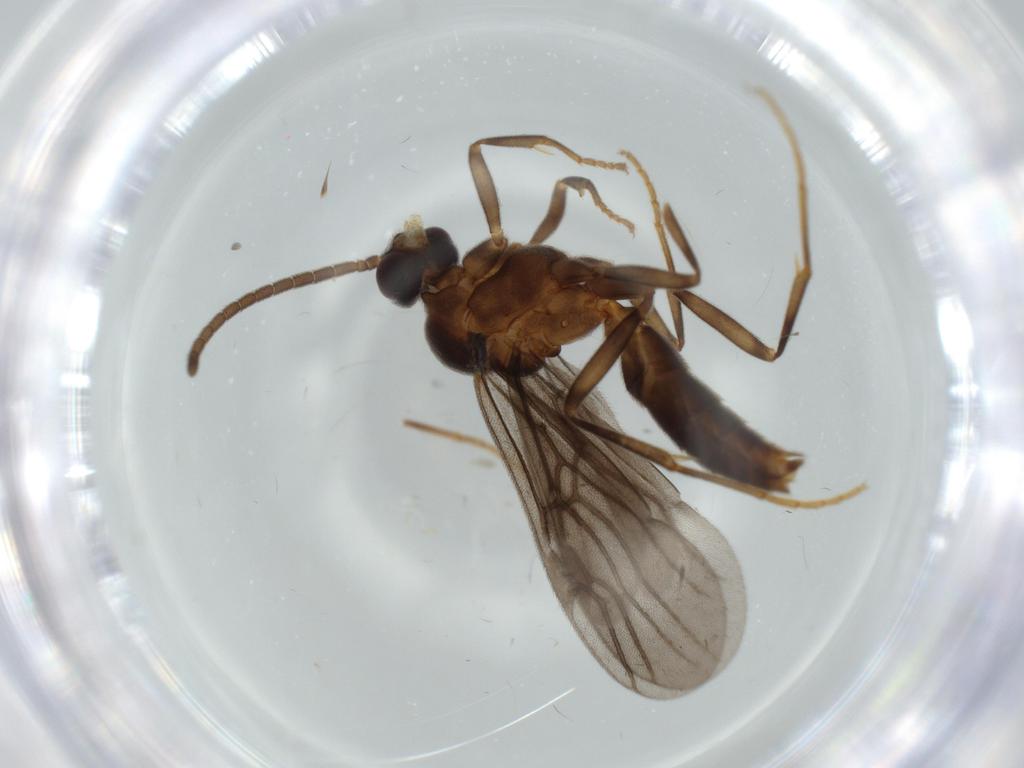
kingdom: Animalia
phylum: Arthropoda
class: Insecta
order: Hymenoptera
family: Formicidae
